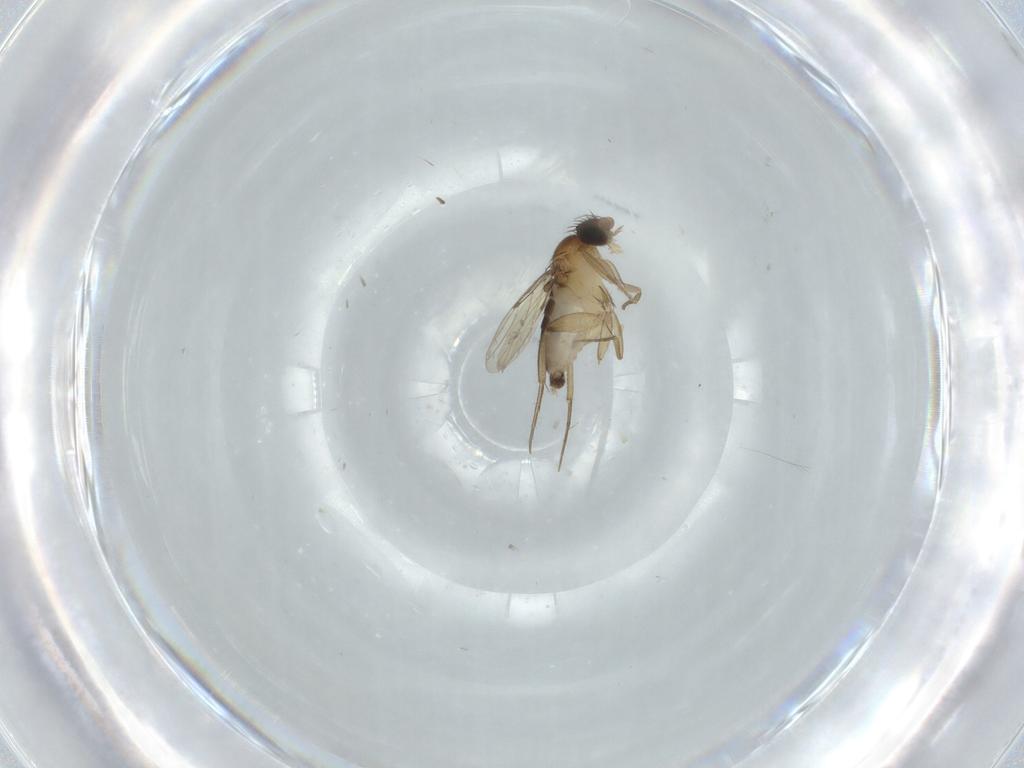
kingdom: Animalia
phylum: Arthropoda
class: Insecta
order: Diptera
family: Phoridae
